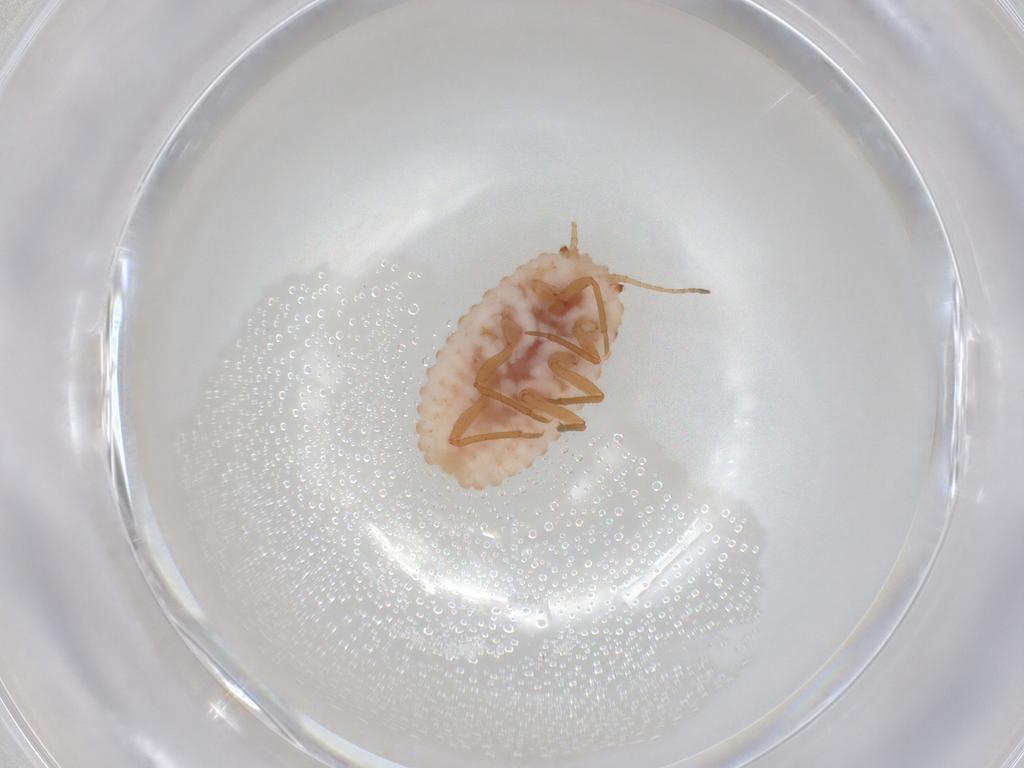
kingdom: Animalia
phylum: Arthropoda
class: Insecta
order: Hemiptera
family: Coccoidea_incertae_sedis
